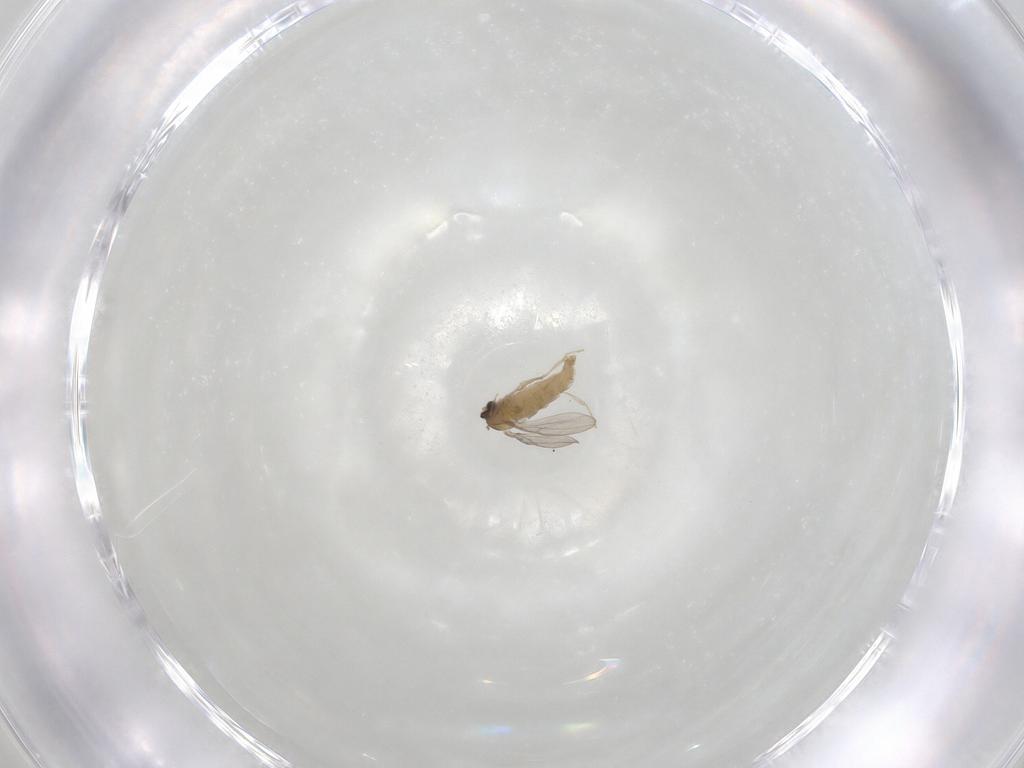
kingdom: Animalia
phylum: Arthropoda
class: Insecta
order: Diptera
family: Cecidomyiidae
